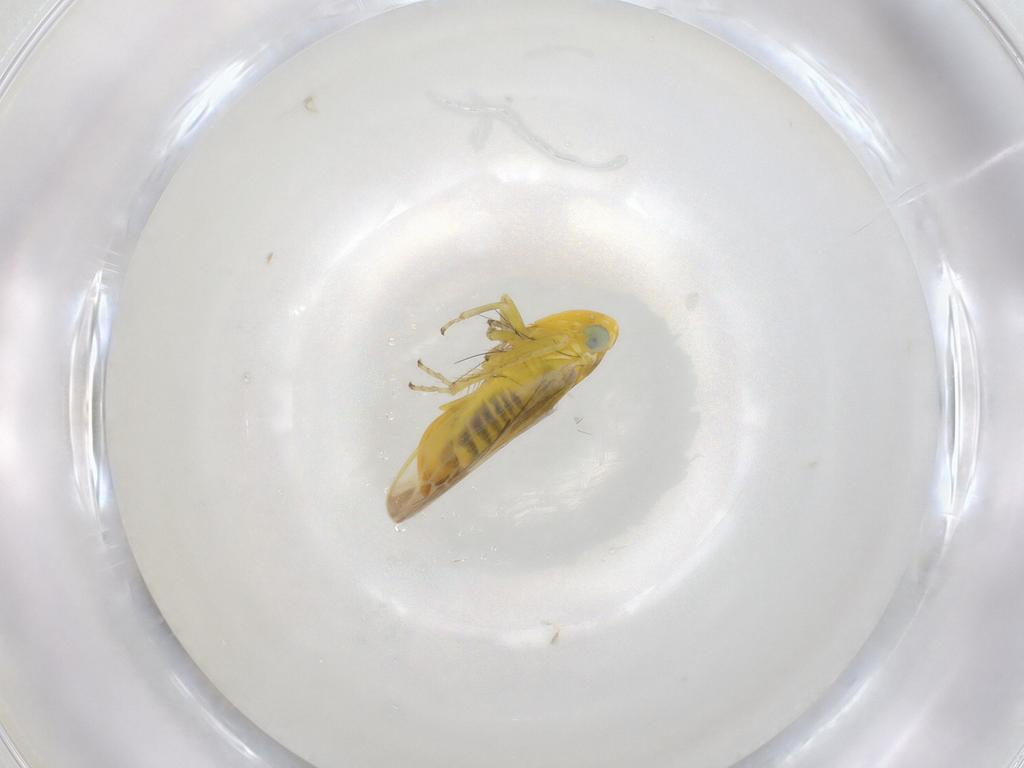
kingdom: Animalia
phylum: Arthropoda
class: Insecta
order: Hemiptera
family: Cicadellidae
